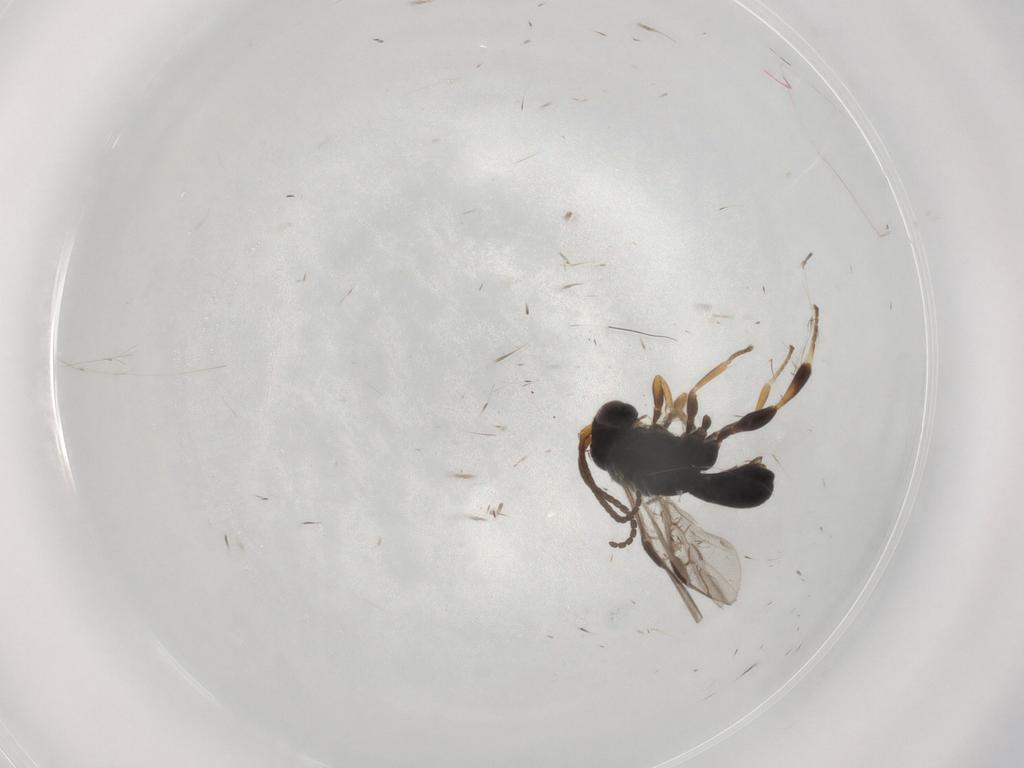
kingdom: Animalia
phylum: Arthropoda
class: Insecta
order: Hymenoptera
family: Braconidae
